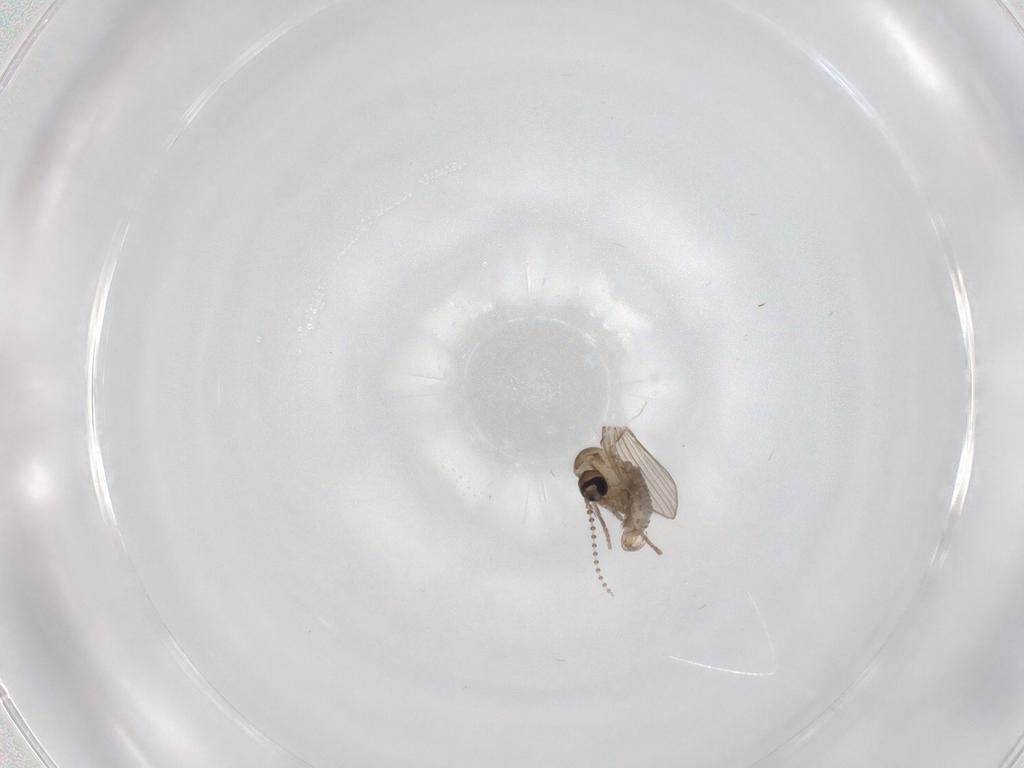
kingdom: Animalia
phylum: Arthropoda
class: Insecta
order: Diptera
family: Psychodidae
